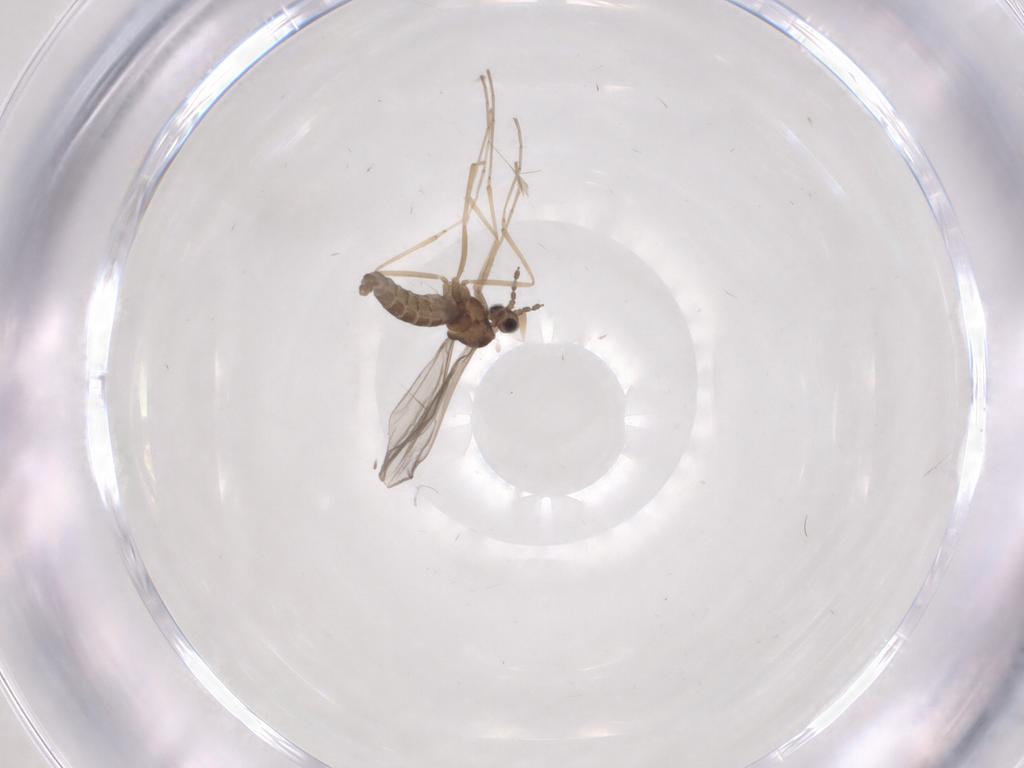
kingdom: Animalia
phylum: Arthropoda
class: Insecta
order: Diptera
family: Cecidomyiidae
